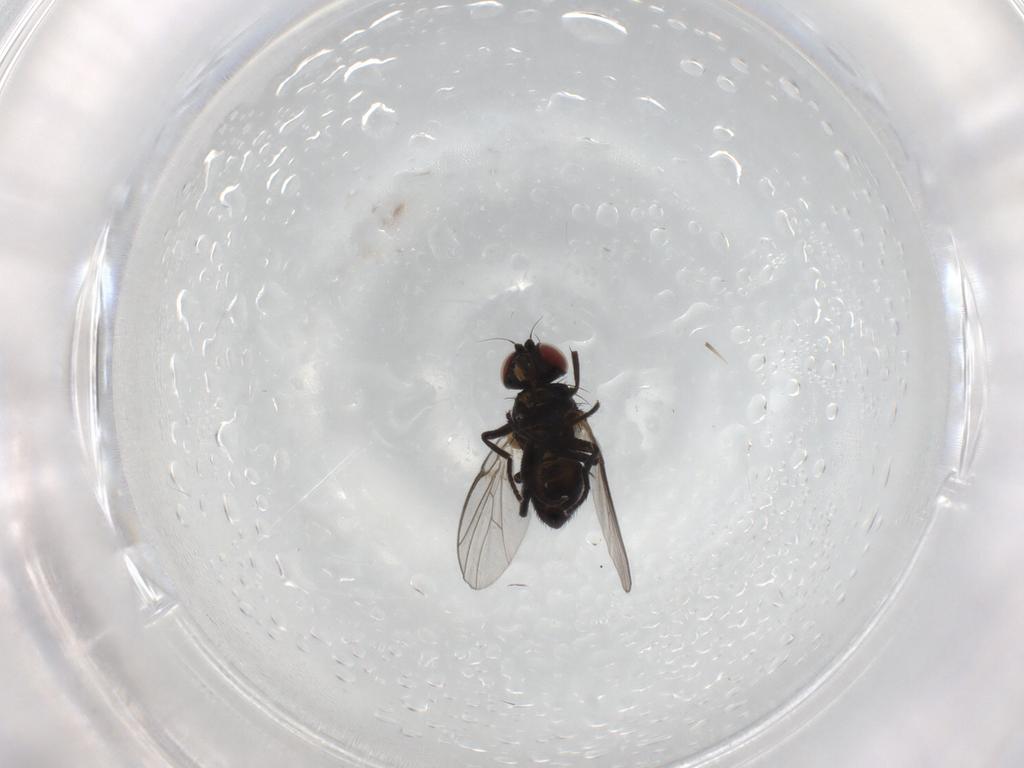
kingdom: Animalia
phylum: Arthropoda
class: Insecta
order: Diptera
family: Agromyzidae
